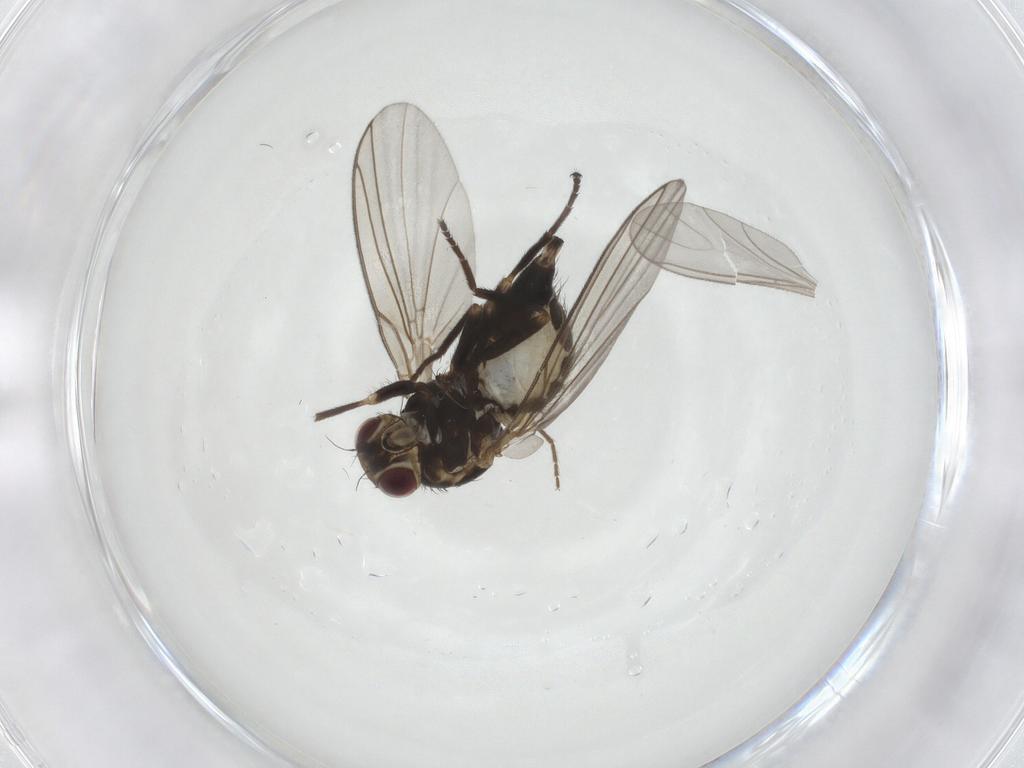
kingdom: Animalia
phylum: Arthropoda
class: Insecta
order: Diptera
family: Agromyzidae
